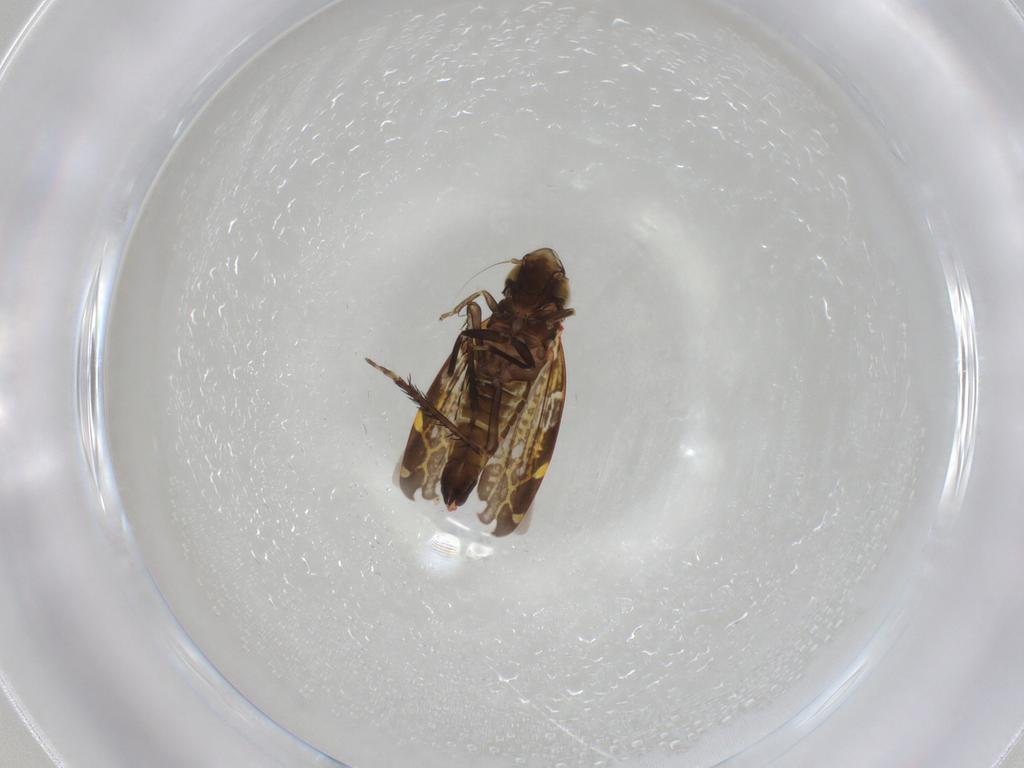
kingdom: Animalia
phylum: Arthropoda
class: Insecta
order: Hemiptera
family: Cicadellidae
